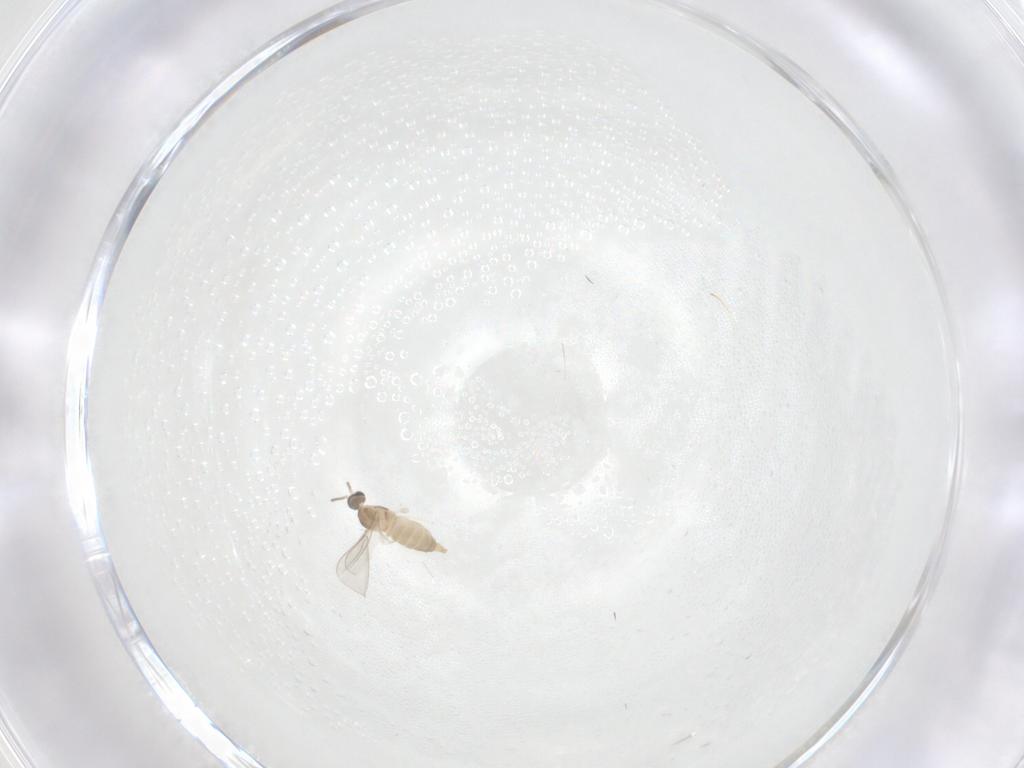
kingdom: Animalia
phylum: Arthropoda
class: Insecta
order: Diptera
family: Cecidomyiidae
